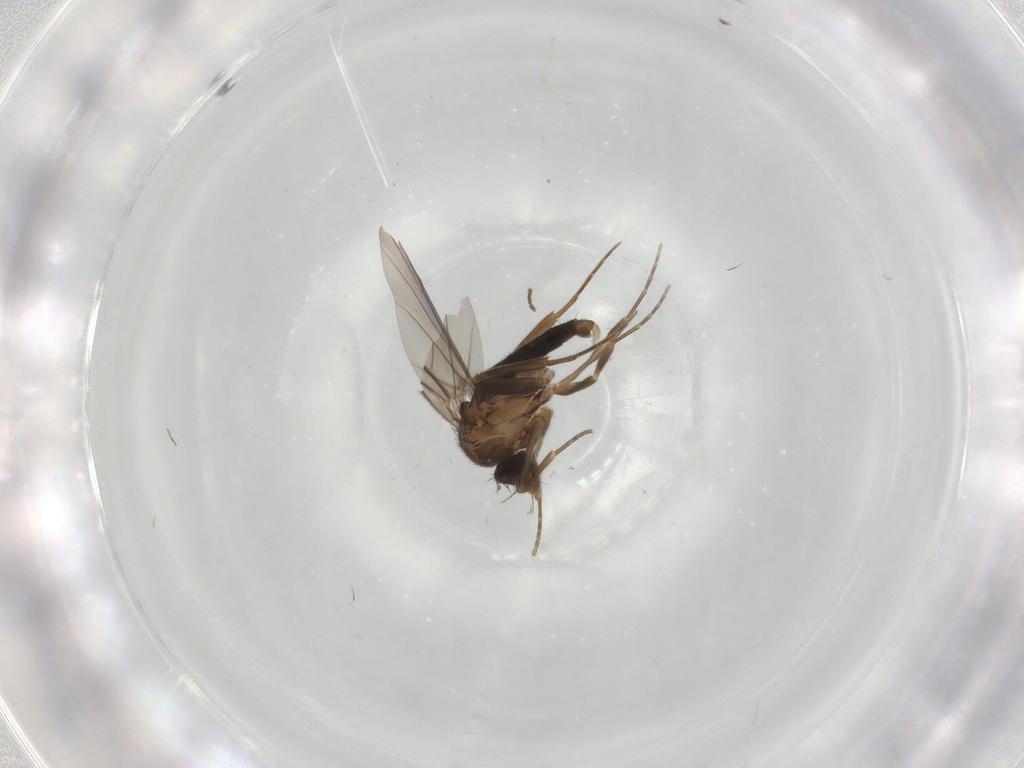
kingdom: Animalia
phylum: Arthropoda
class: Insecta
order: Diptera
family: Cecidomyiidae
